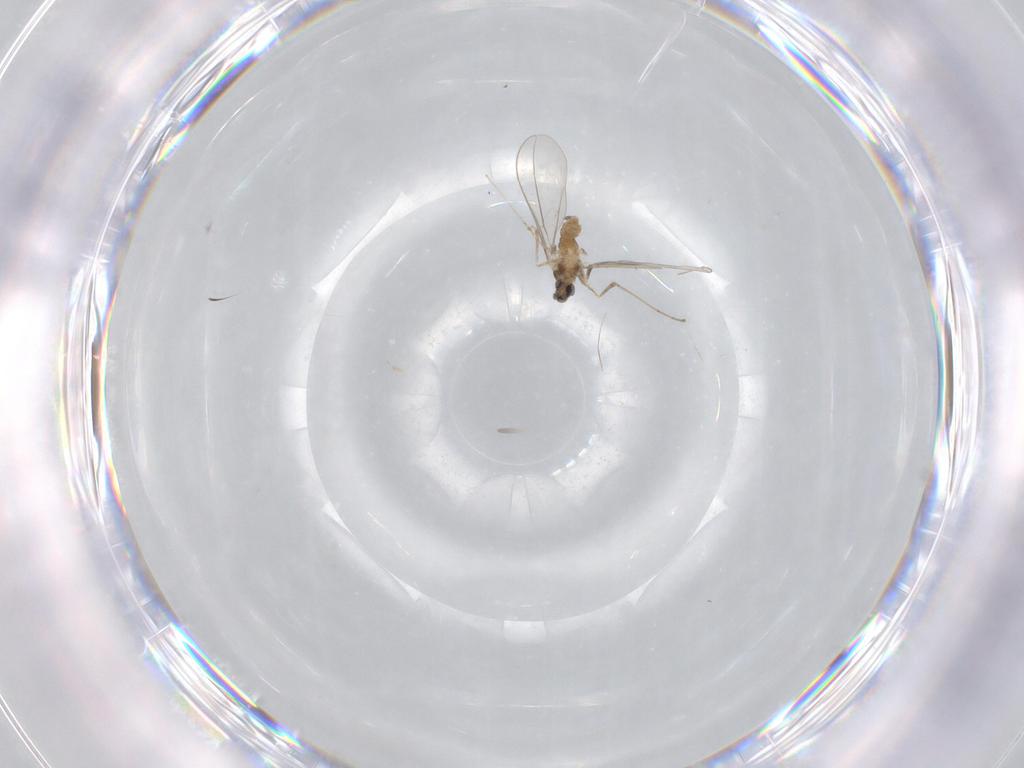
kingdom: Animalia
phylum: Arthropoda
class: Insecta
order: Diptera
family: Cecidomyiidae
